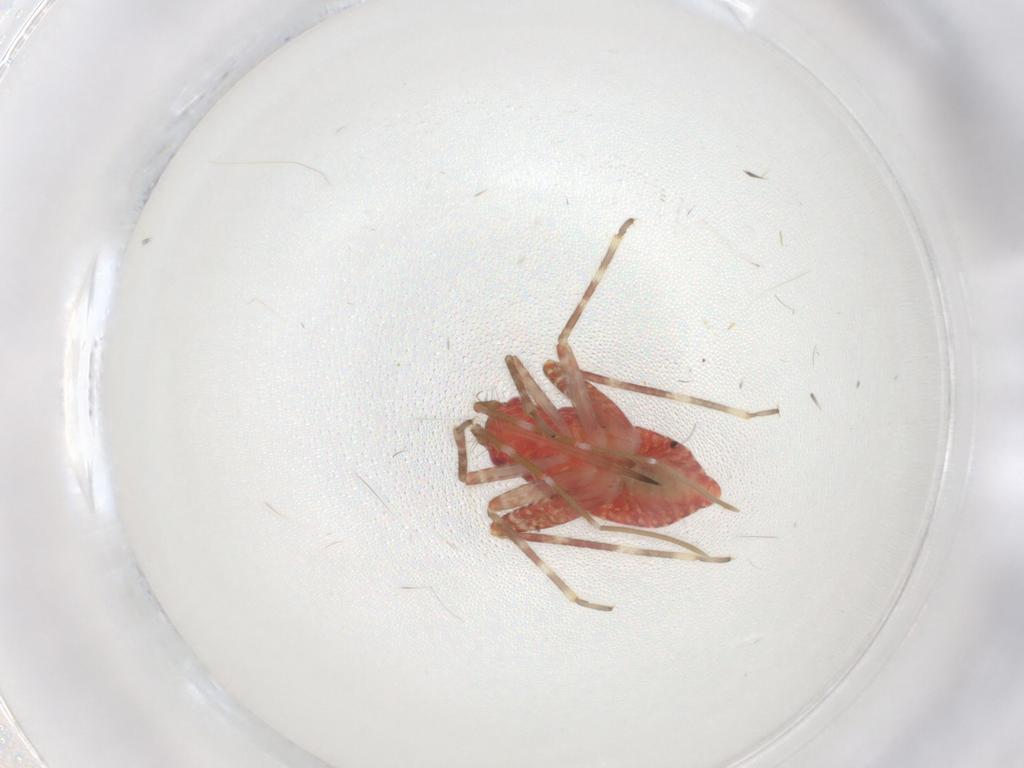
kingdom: Animalia
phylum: Arthropoda
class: Insecta
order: Hemiptera
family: Miridae
